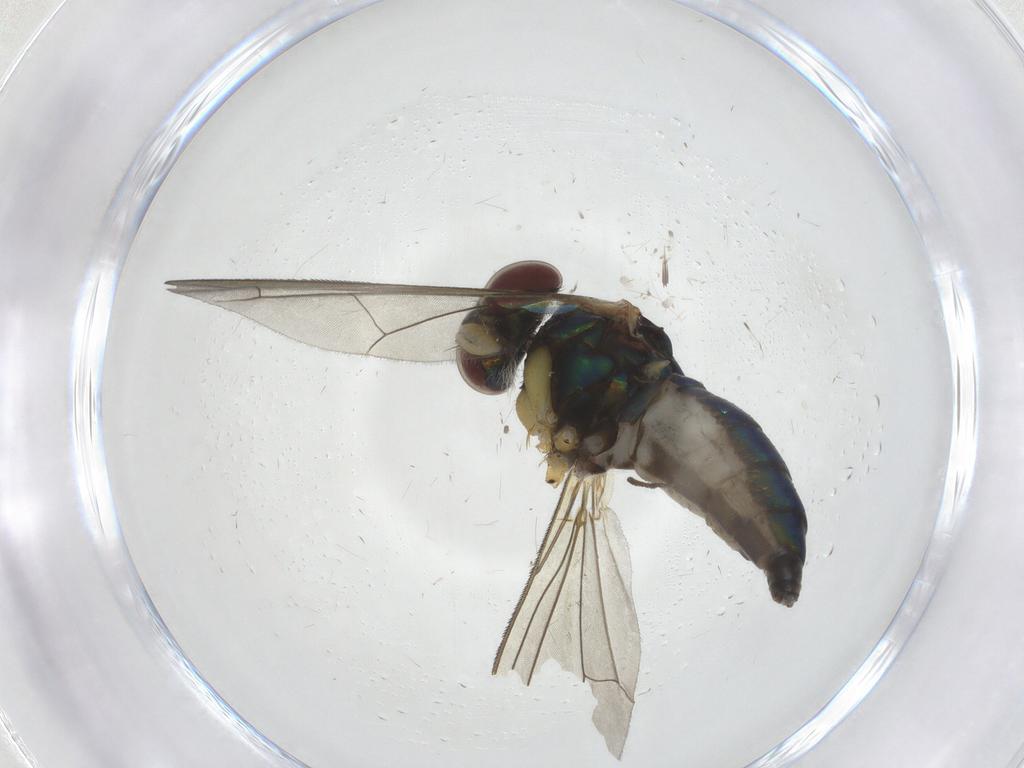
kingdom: Animalia
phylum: Arthropoda
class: Insecta
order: Diptera
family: Dolichopodidae
